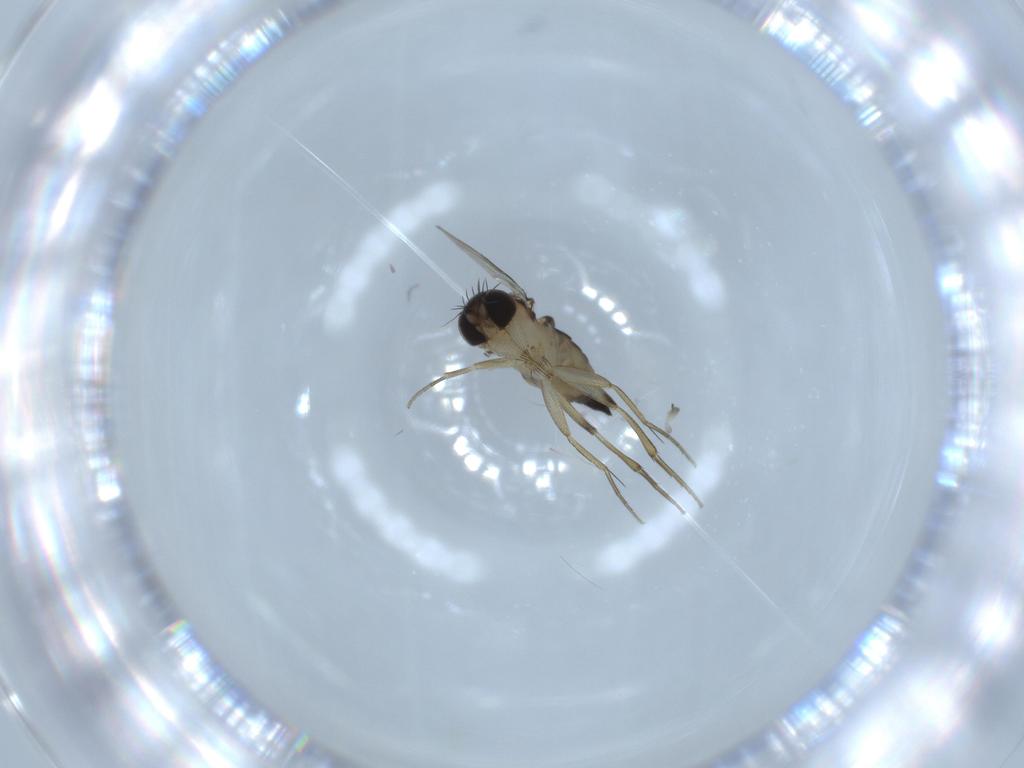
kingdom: Animalia
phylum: Arthropoda
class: Insecta
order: Diptera
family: Phoridae
